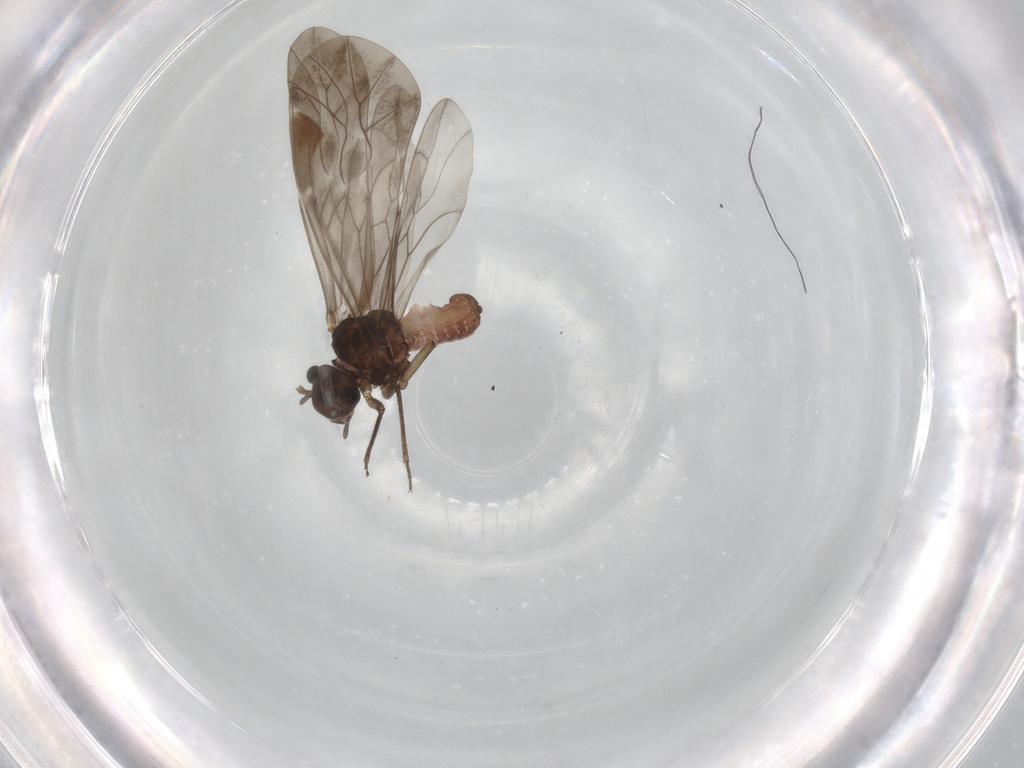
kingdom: Animalia
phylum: Arthropoda
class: Insecta
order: Psocodea
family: Peripsocidae
